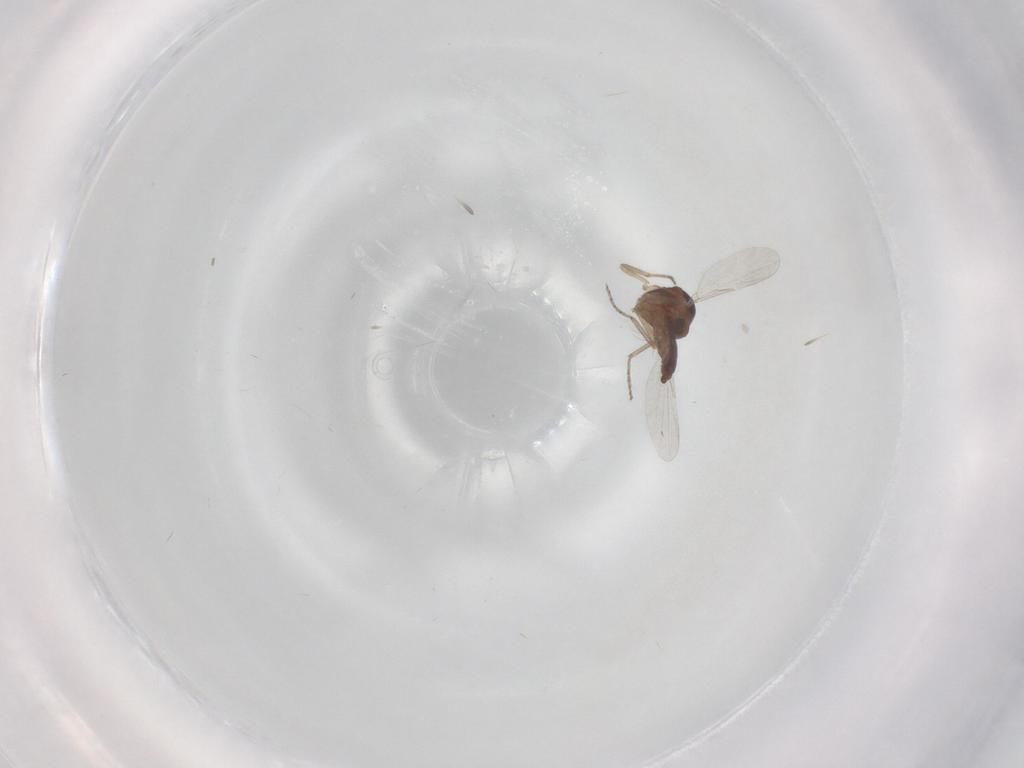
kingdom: Animalia
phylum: Arthropoda
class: Insecta
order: Diptera
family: Ceratopogonidae
